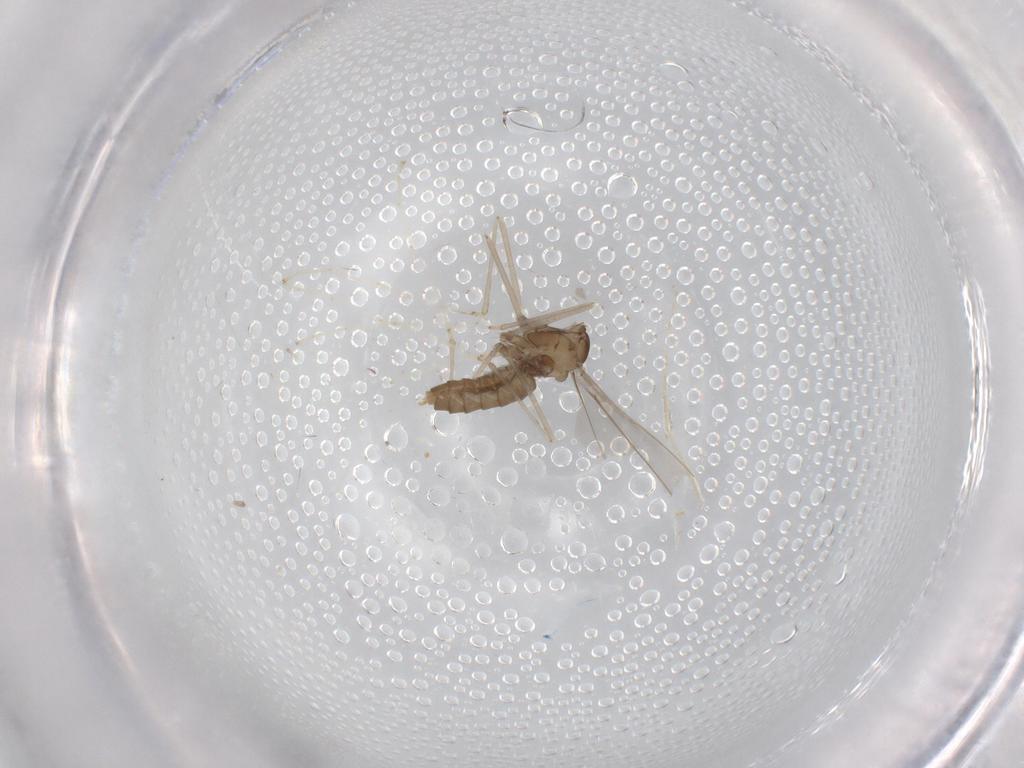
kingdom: Animalia
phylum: Arthropoda
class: Insecta
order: Diptera
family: Cecidomyiidae
